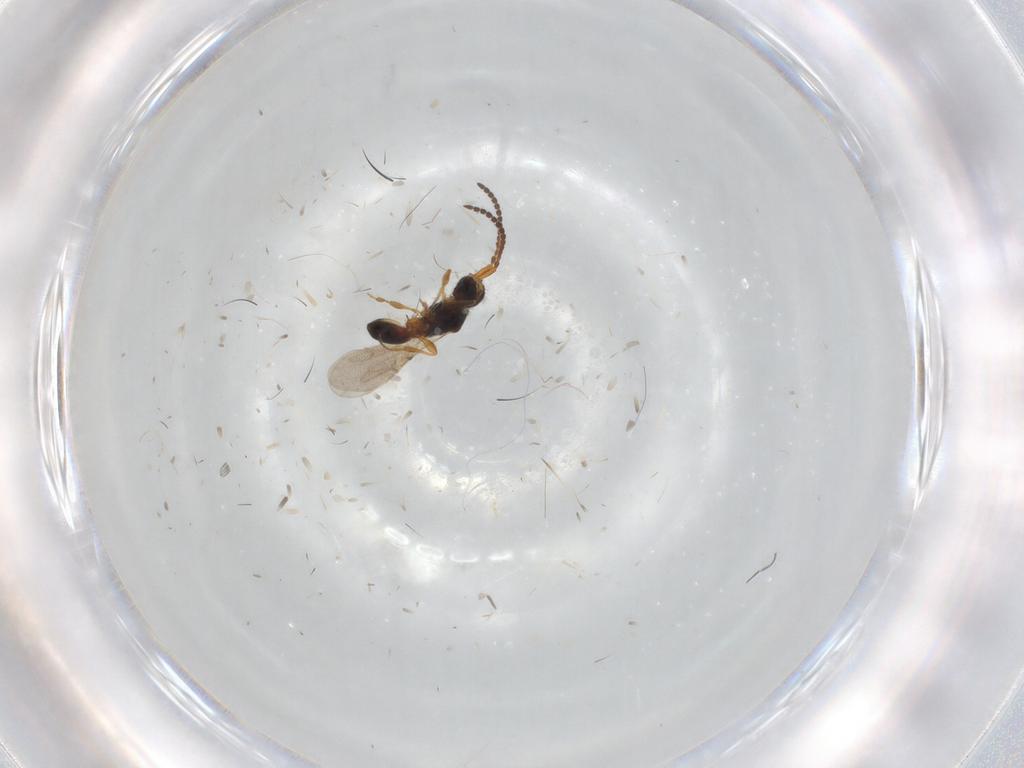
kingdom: Animalia
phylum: Arthropoda
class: Insecta
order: Hymenoptera
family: Diapriidae
